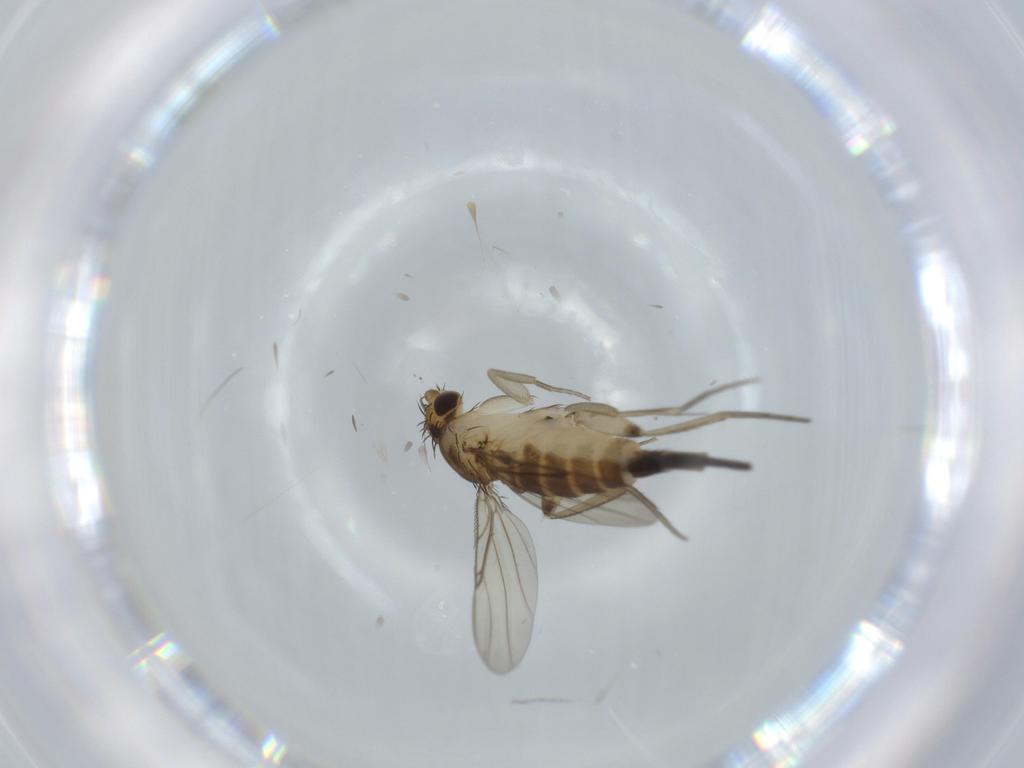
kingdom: Animalia
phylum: Arthropoda
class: Insecta
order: Diptera
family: Phoridae
